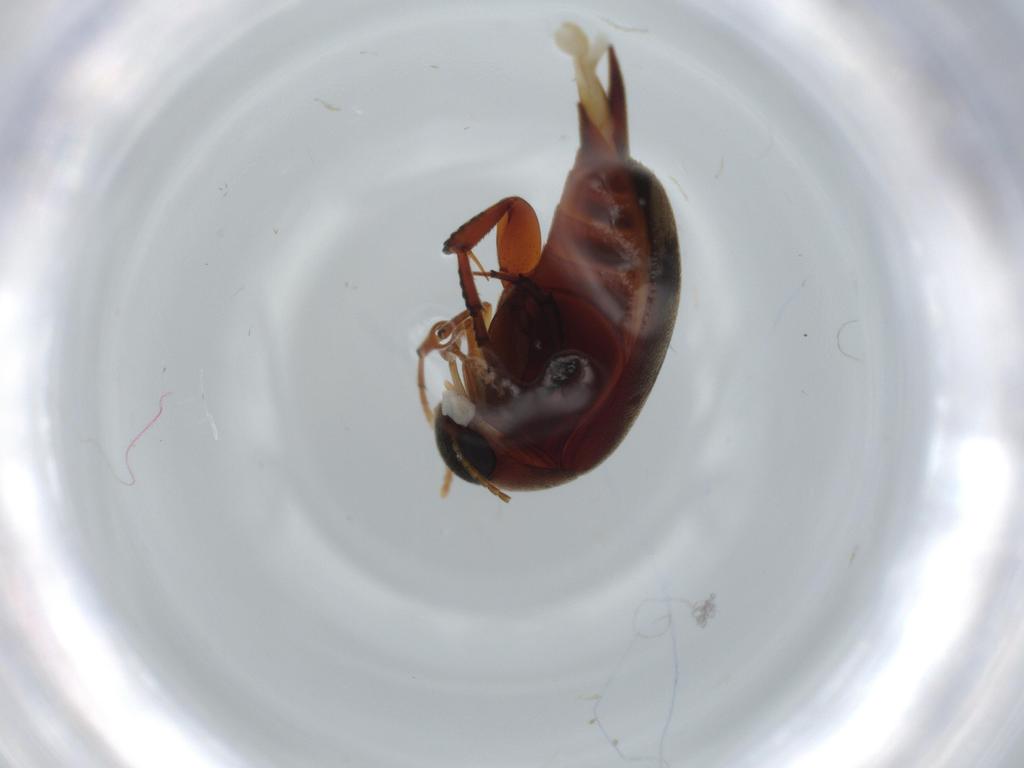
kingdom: Animalia
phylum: Arthropoda
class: Insecta
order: Coleoptera
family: Mordellidae
